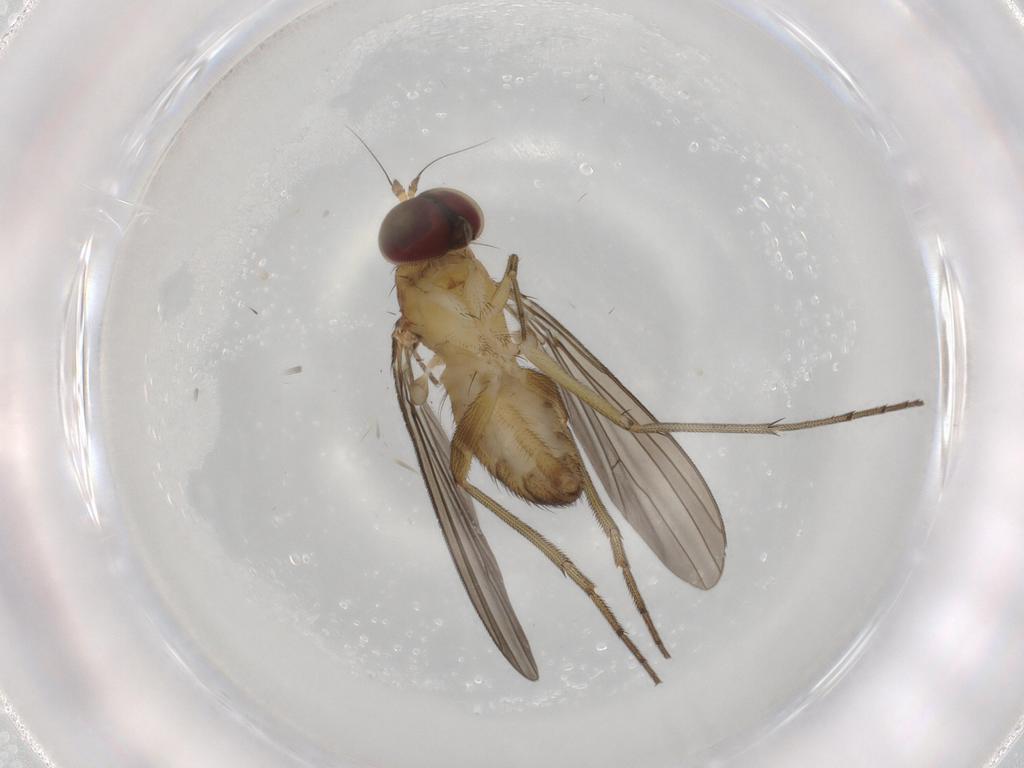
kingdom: Animalia
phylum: Arthropoda
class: Insecta
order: Diptera
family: Dolichopodidae
